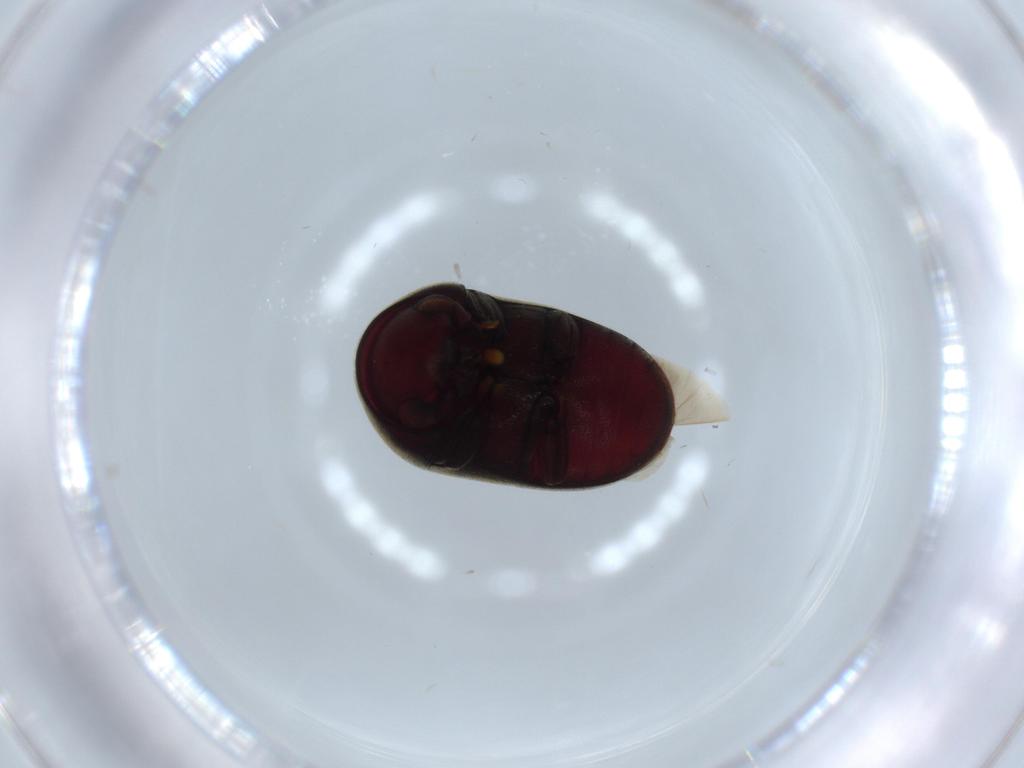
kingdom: Animalia
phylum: Arthropoda
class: Insecta
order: Coleoptera
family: Ptinidae
